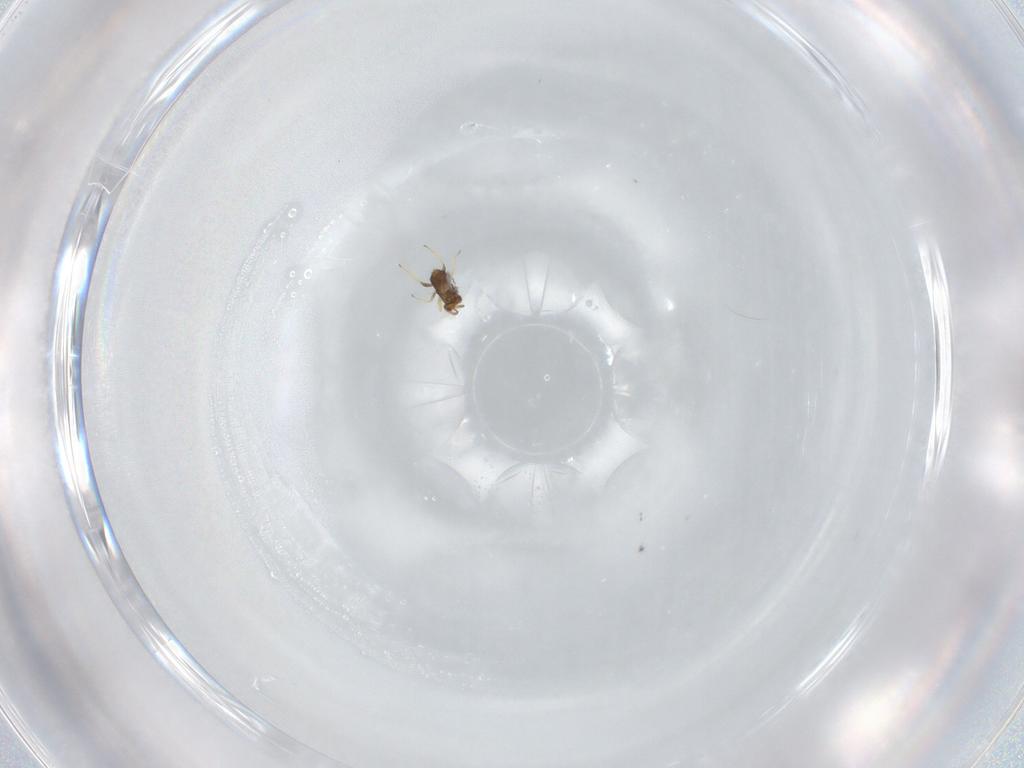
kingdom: Animalia
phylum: Arthropoda
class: Insecta
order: Hymenoptera
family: Trichogrammatidae
